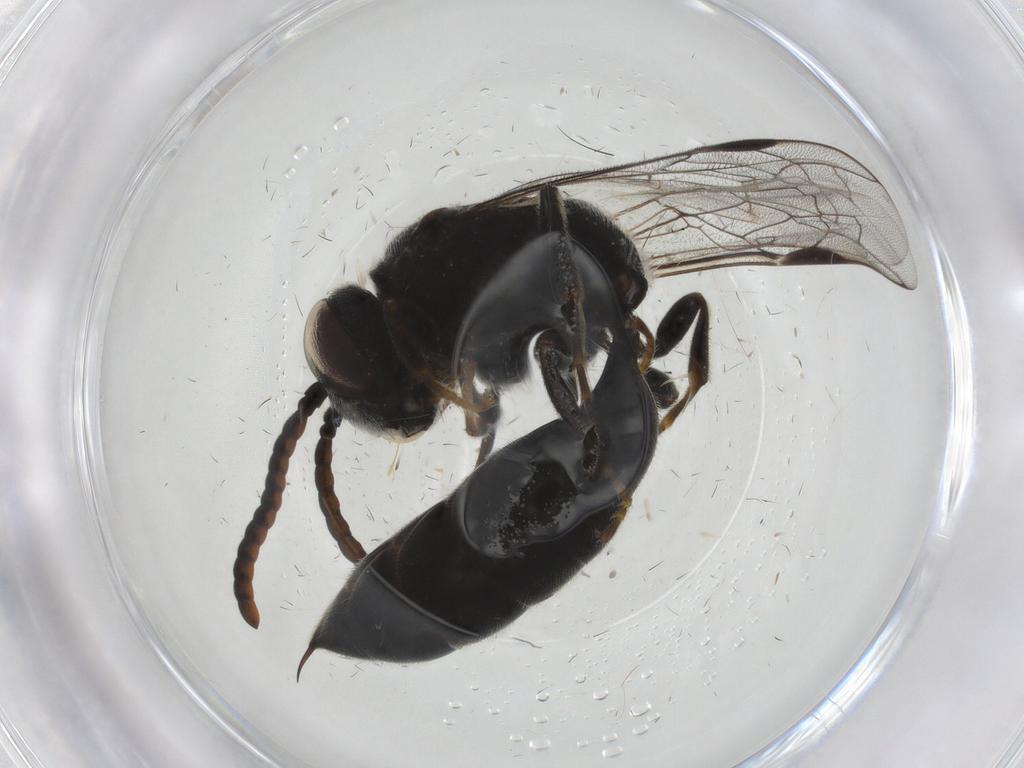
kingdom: Animalia
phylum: Arthropoda
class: Insecta
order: Hymenoptera
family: Psenidae
